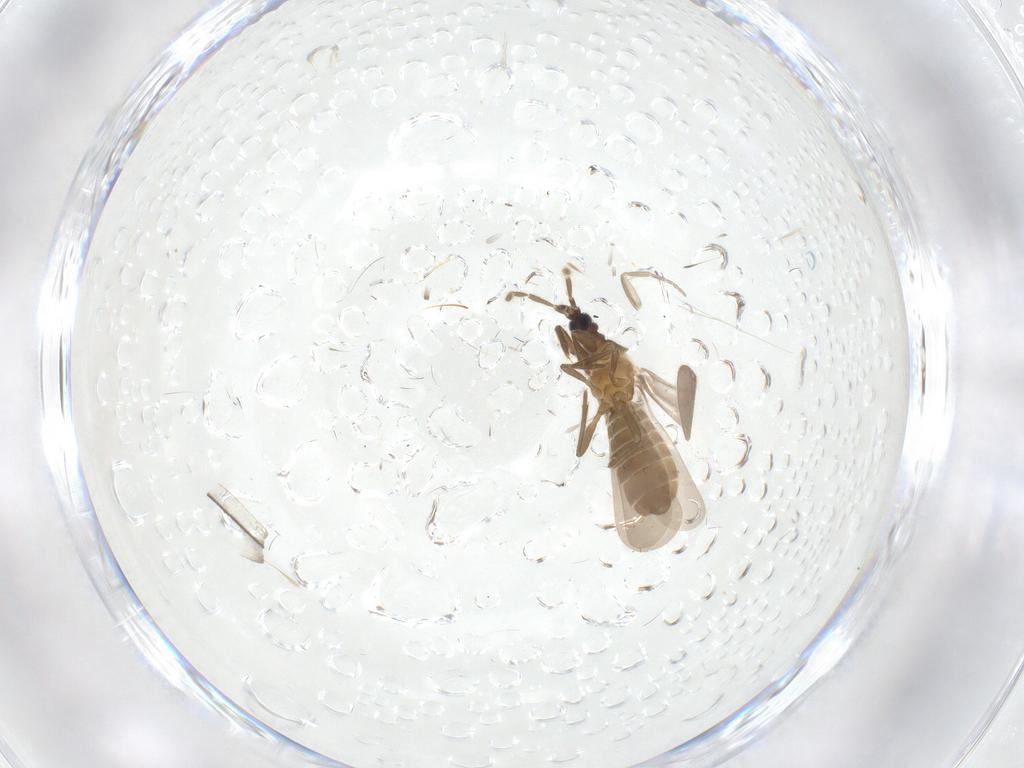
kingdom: Animalia
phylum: Arthropoda
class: Insecta
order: Hemiptera
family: Enicocephalidae
